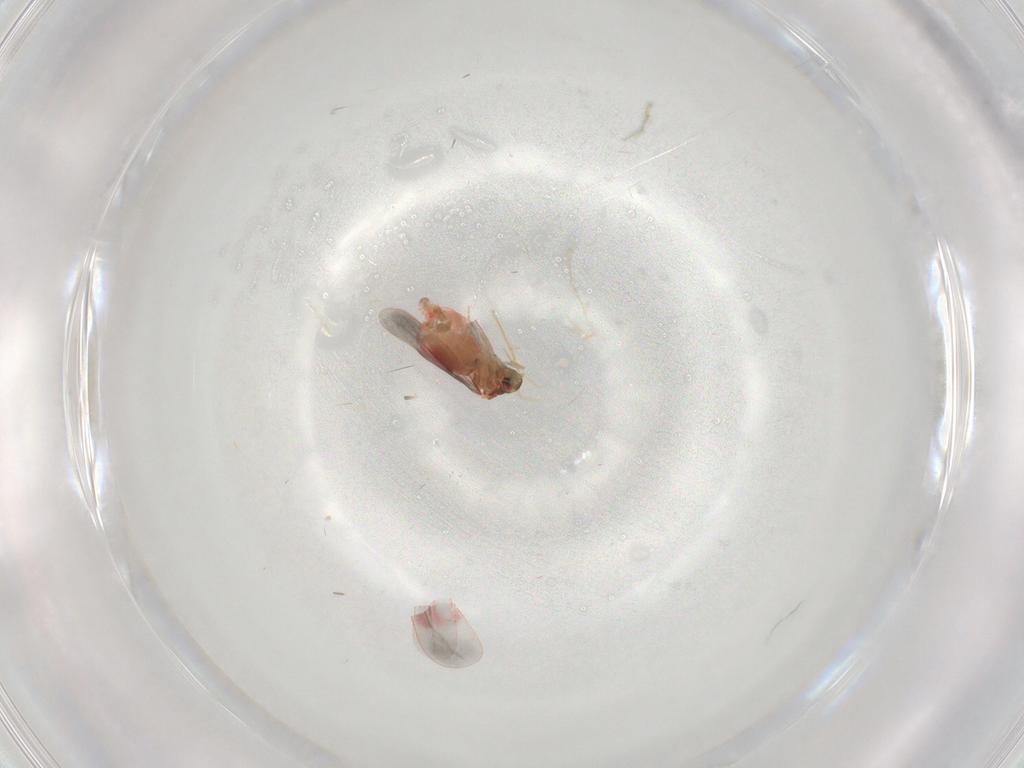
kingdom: Animalia
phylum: Arthropoda
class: Insecta
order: Hemiptera
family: Aleyrodidae
